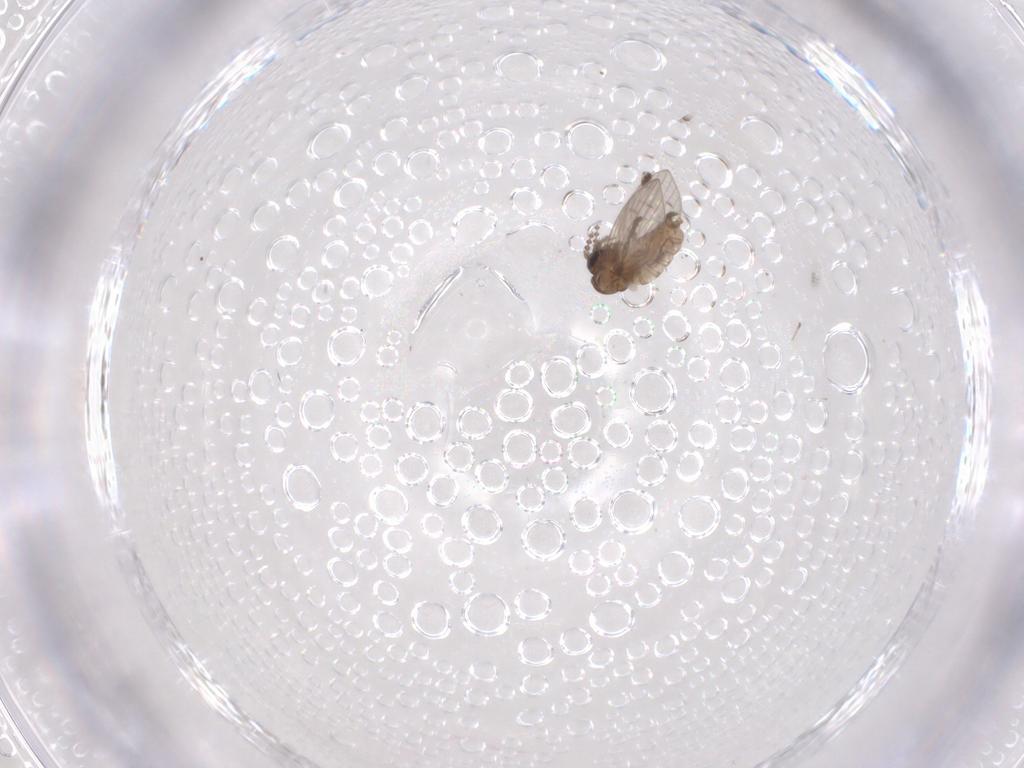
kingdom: Animalia
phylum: Arthropoda
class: Insecta
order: Diptera
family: Psychodidae
